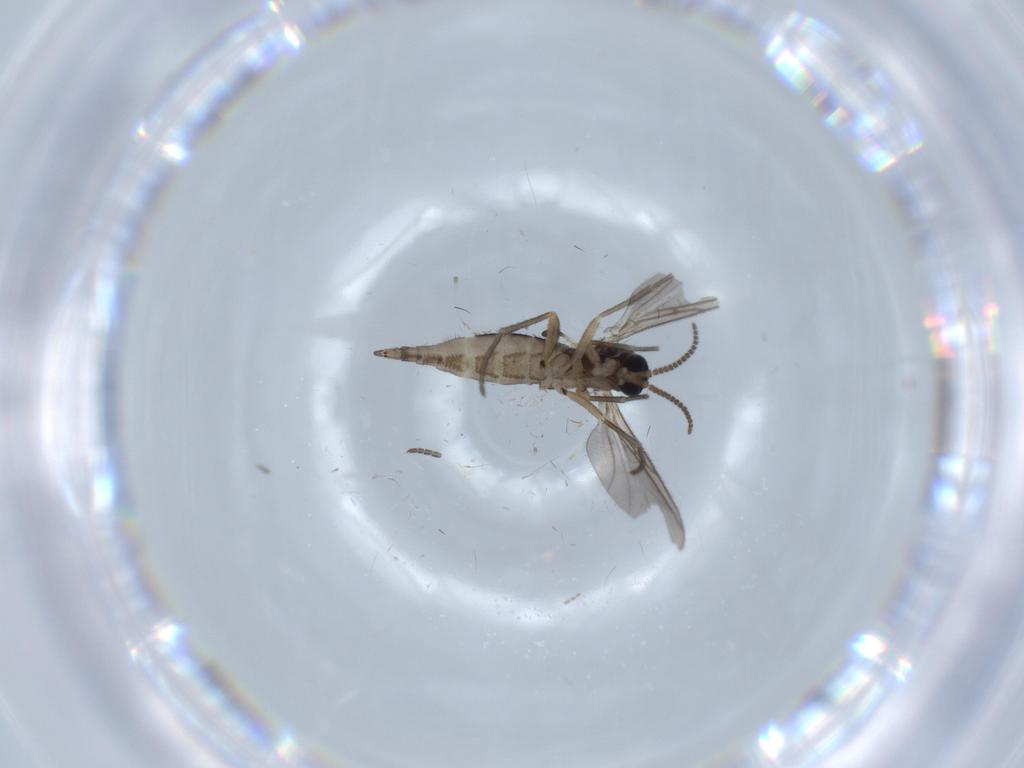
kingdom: Animalia
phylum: Arthropoda
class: Insecta
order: Diptera
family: Sciaridae
